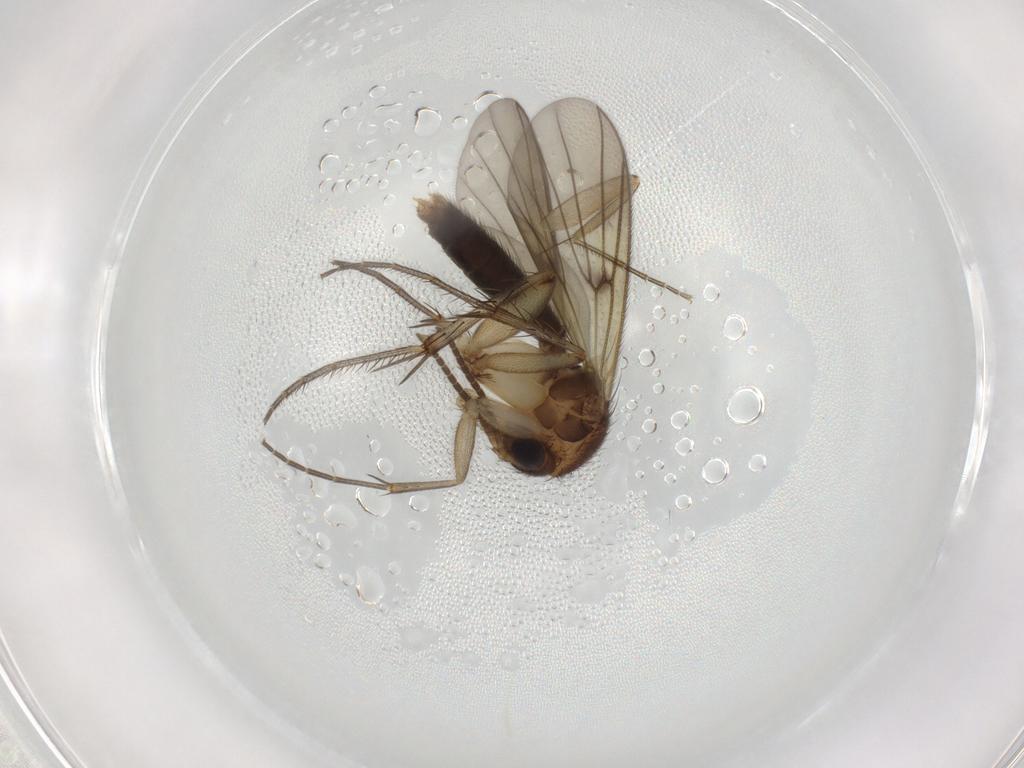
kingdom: Animalia
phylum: Arthropoda
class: Insecta
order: Diptera
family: Mycetophilidae
